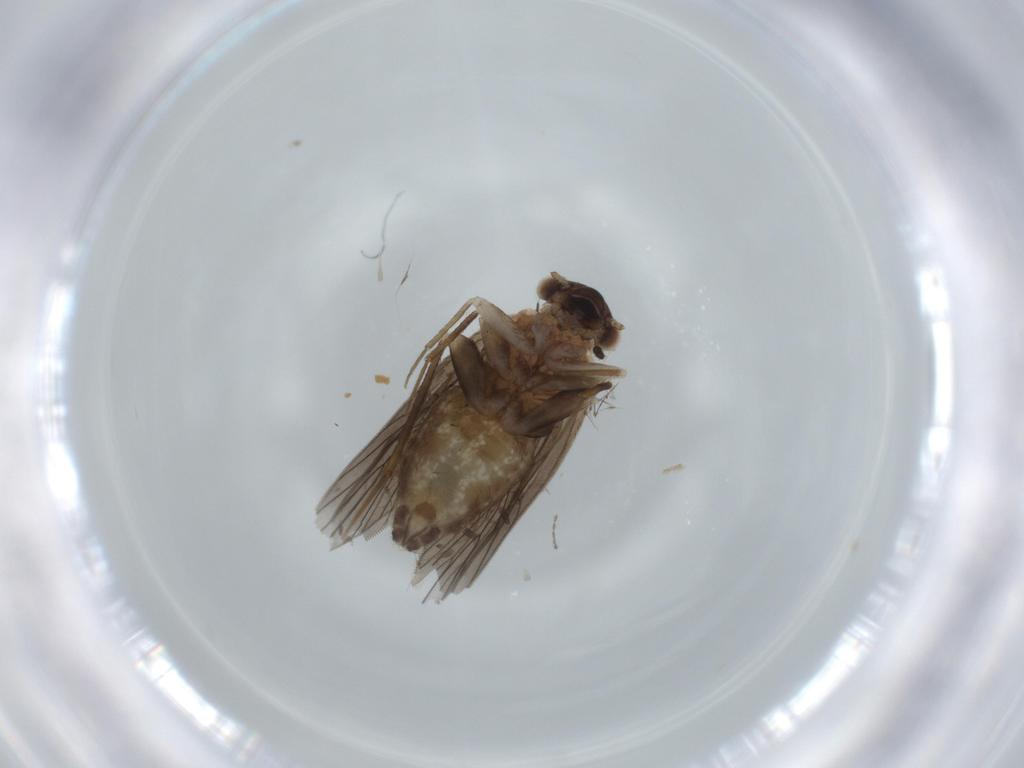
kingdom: Animalia
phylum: Arthropoda
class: Insecta
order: Psocodea
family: Lepidopsocidae
